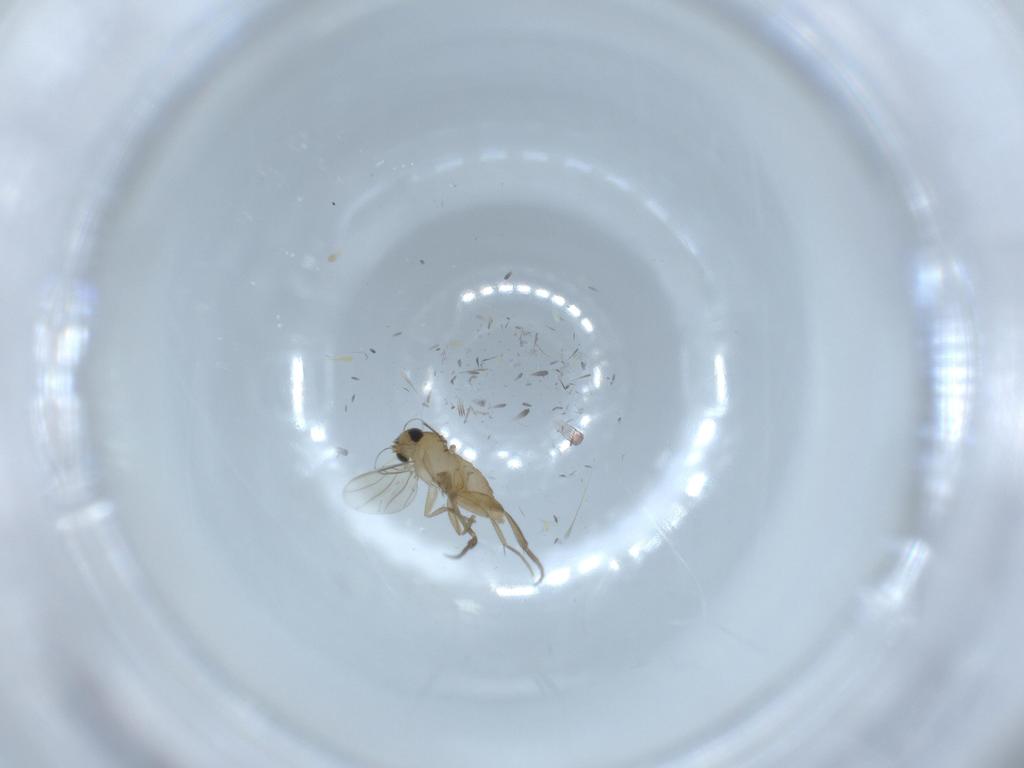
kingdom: Animalia
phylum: Arthropoda
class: Insecta
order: Diptera
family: Phoridae
